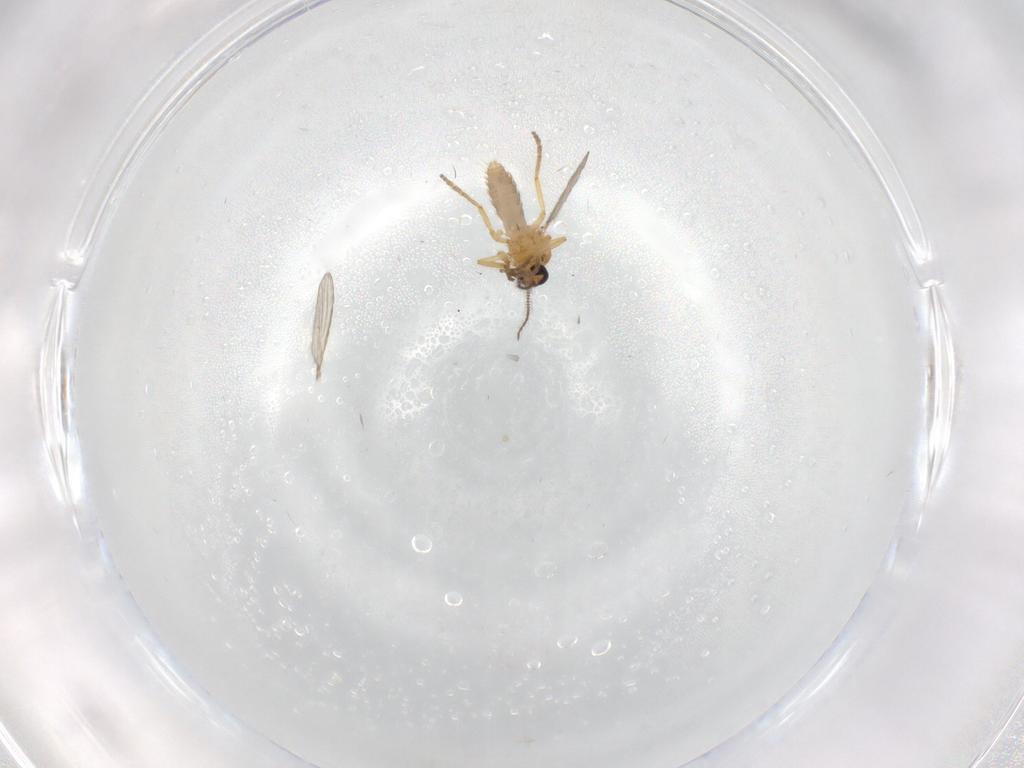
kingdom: Animalia
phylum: Arthropoda
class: Insecta
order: Diptera
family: Ceratopogonidae
